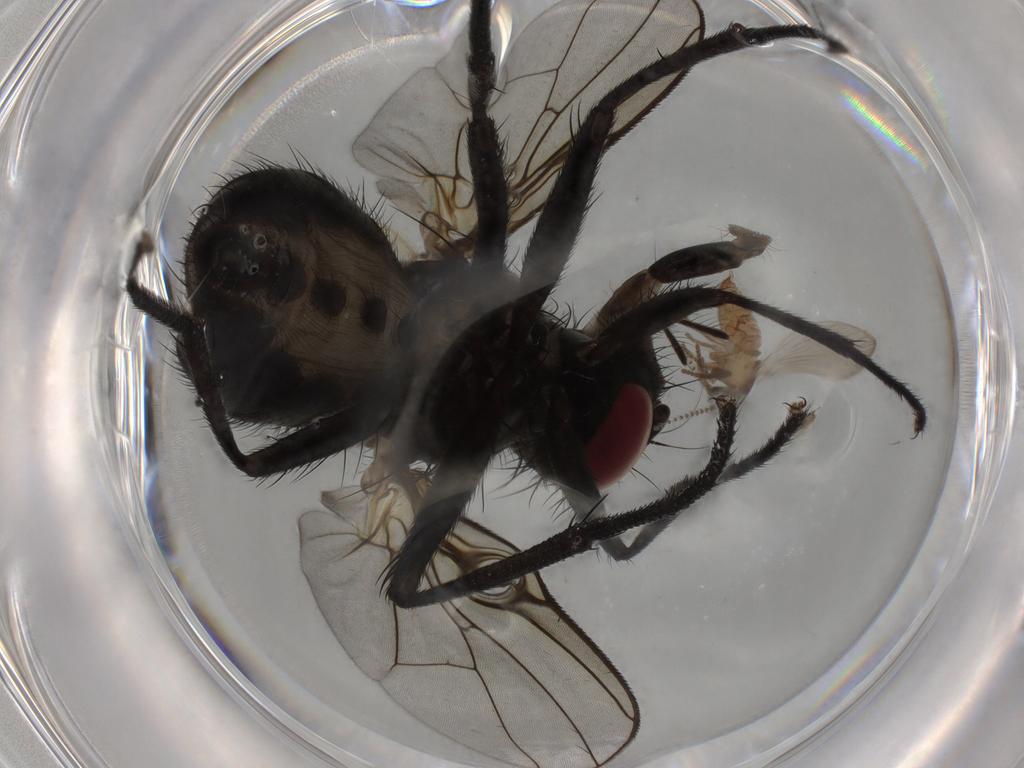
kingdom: Animalia
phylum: Arthropoda
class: Insecta
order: Diptera
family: Muscidae
